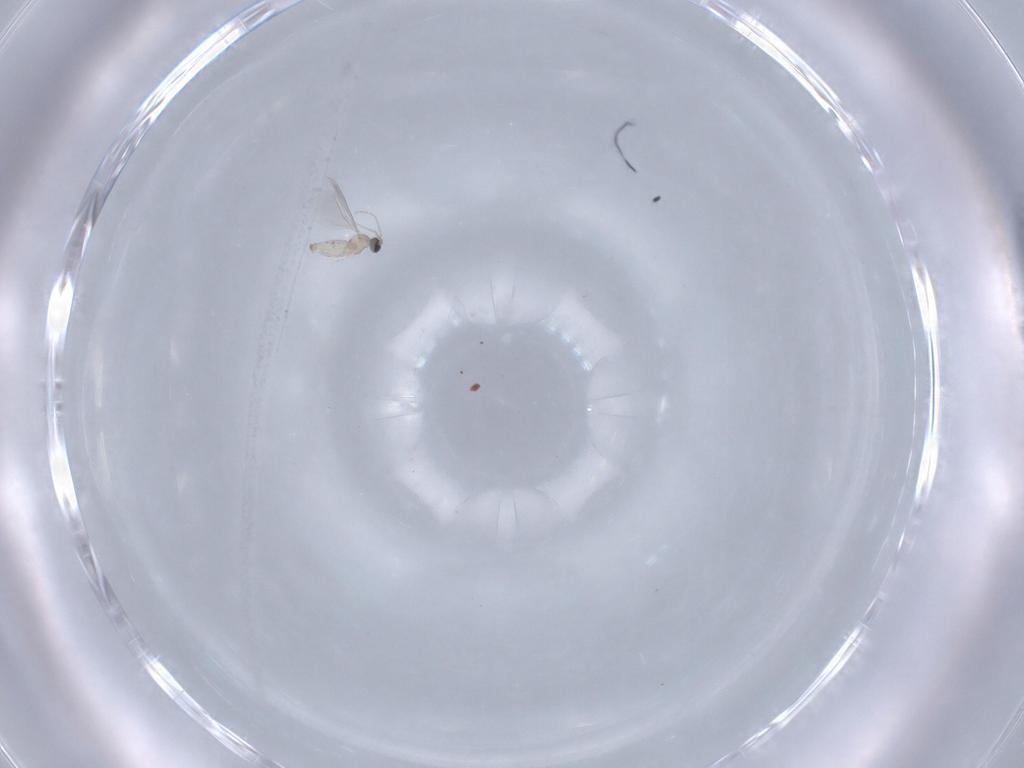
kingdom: Animalia
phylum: Arthropoda
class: Insecta
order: Diptera
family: Cecidomyiidae
